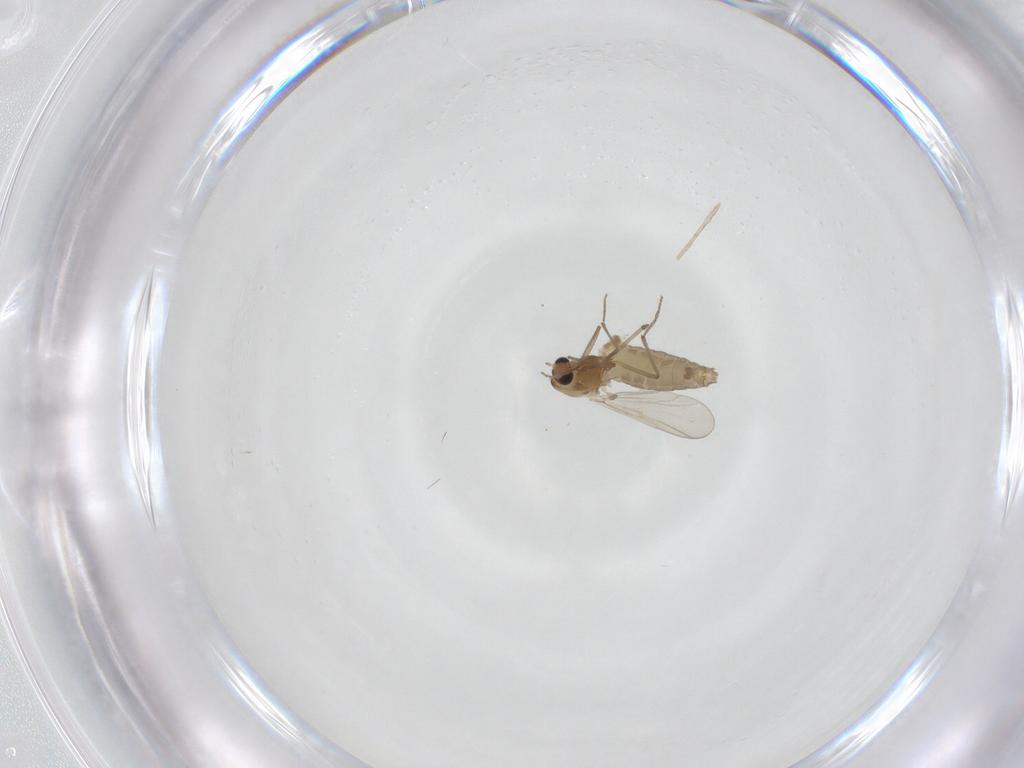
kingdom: Animalia
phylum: Arthropoda
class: Insecta
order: Diptera
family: Chironomidae
